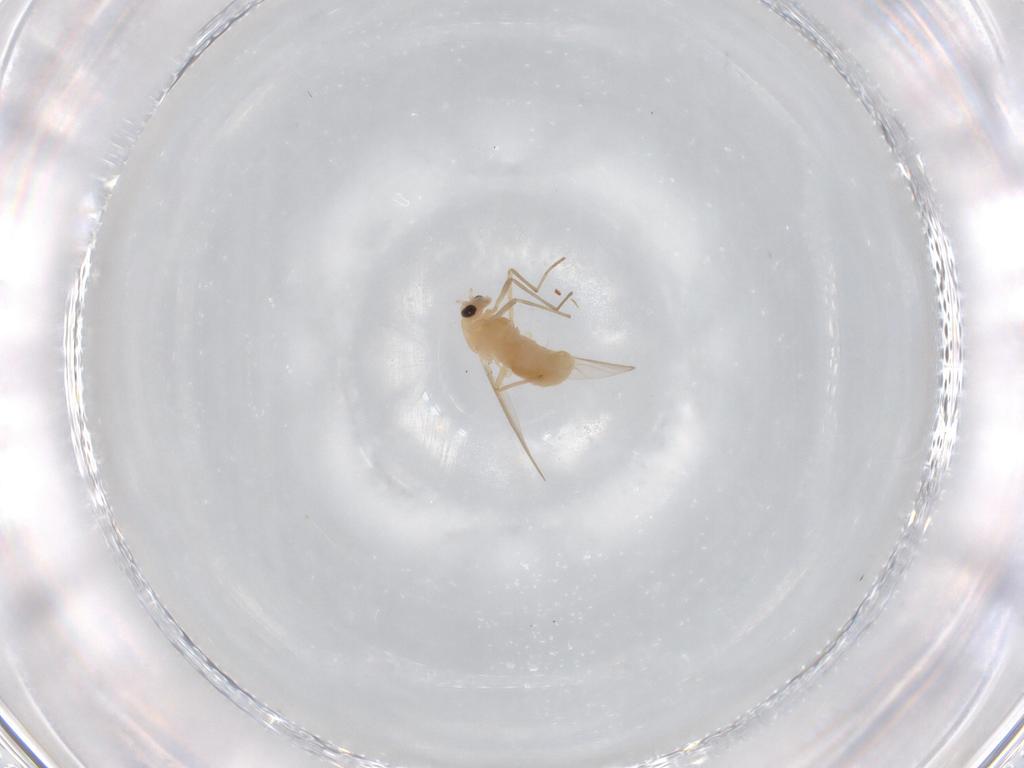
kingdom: Animalia
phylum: Arthropoda
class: Insecta
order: Diptera
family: Chironomidae
